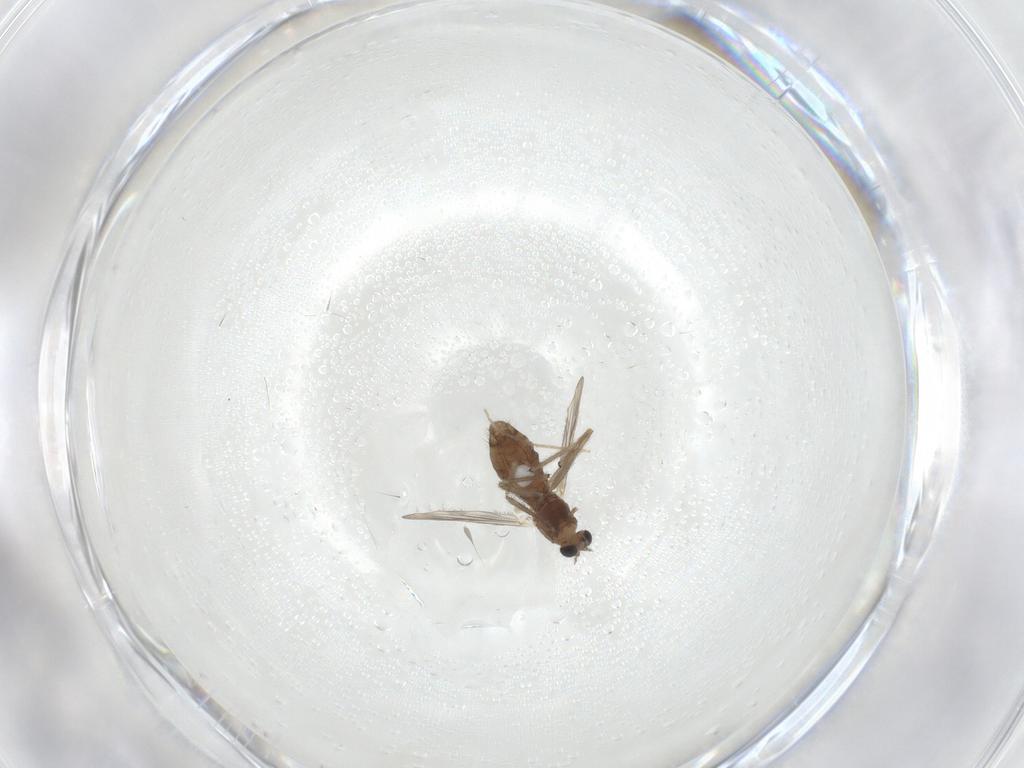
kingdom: Animalia
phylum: Arthropoda
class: Insecta
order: Diptera
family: Chironomidae
